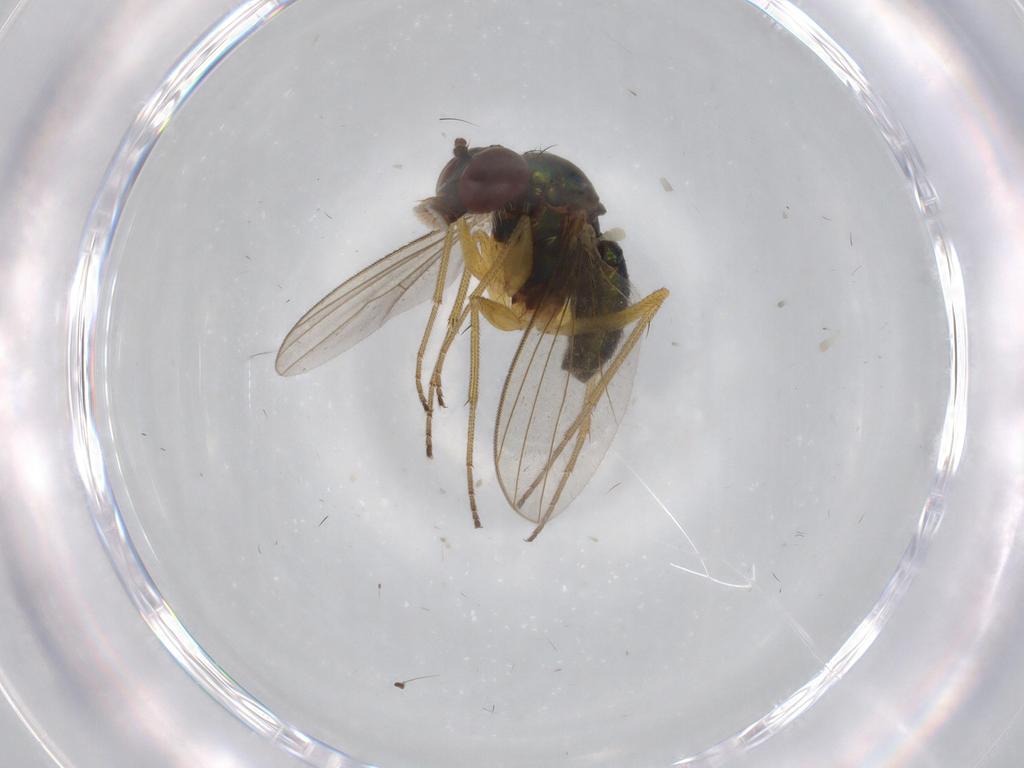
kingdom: Animalia
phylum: Arthropoda
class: Insecta
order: Diptera
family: Dolichopodidae
